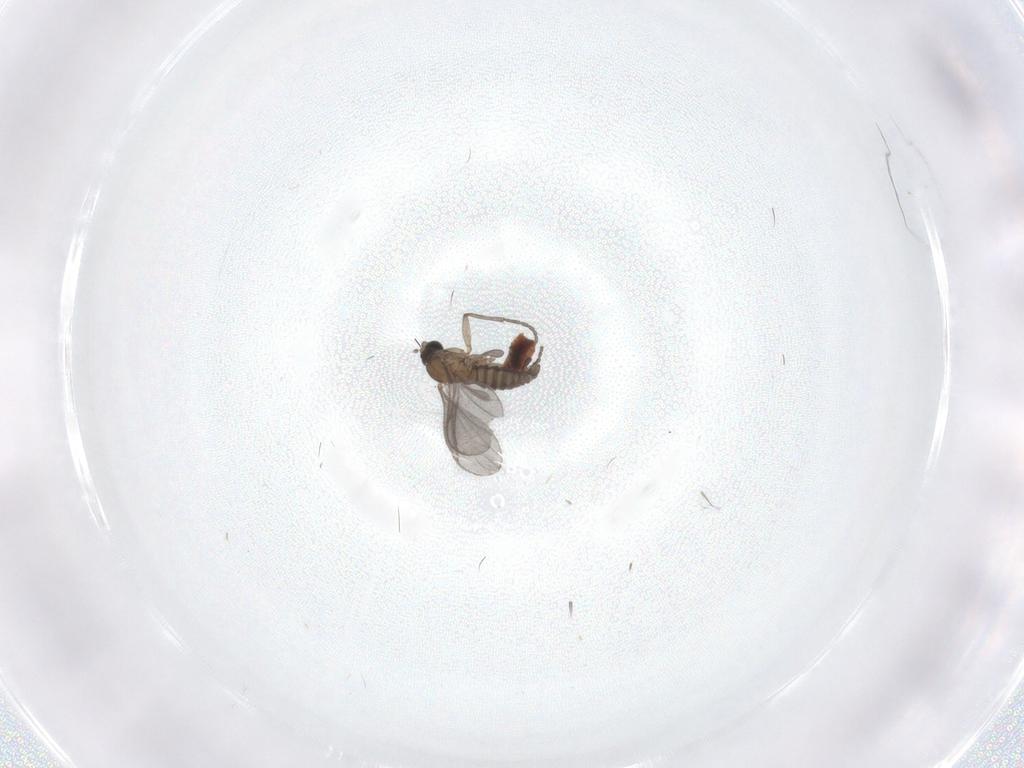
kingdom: Animalia
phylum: Arthropoda
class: Insecta
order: Diptera
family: Sciaridae
